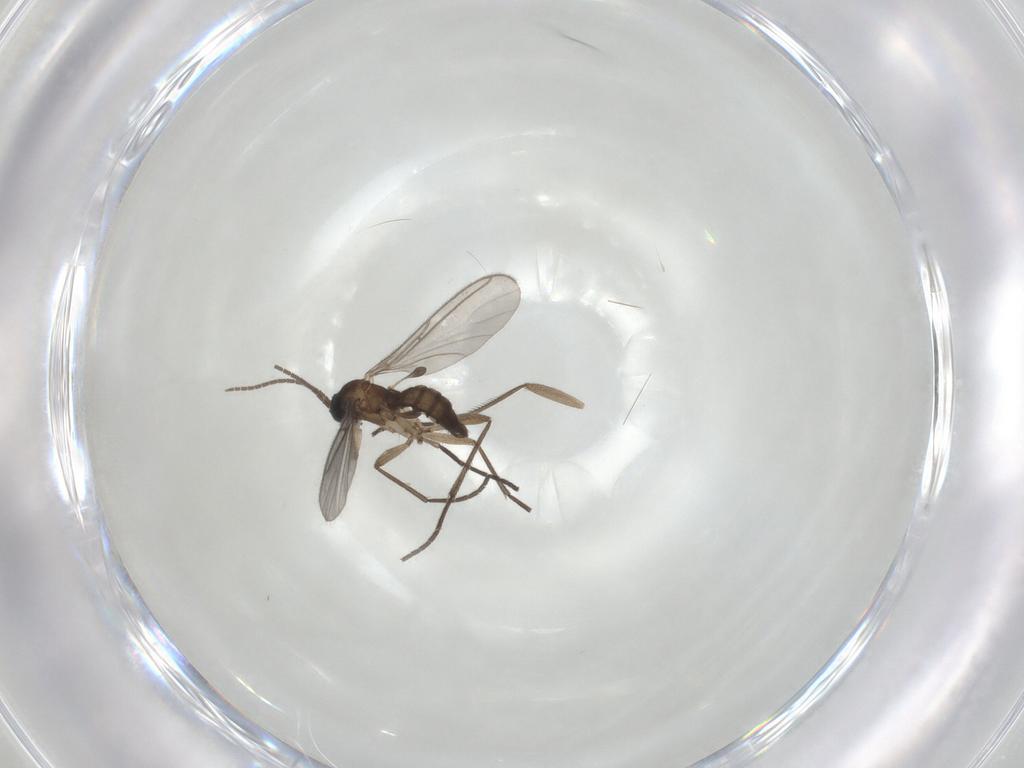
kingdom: Animalia
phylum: Arthropoda
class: Insecta
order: Diptera
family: Sciaridae
